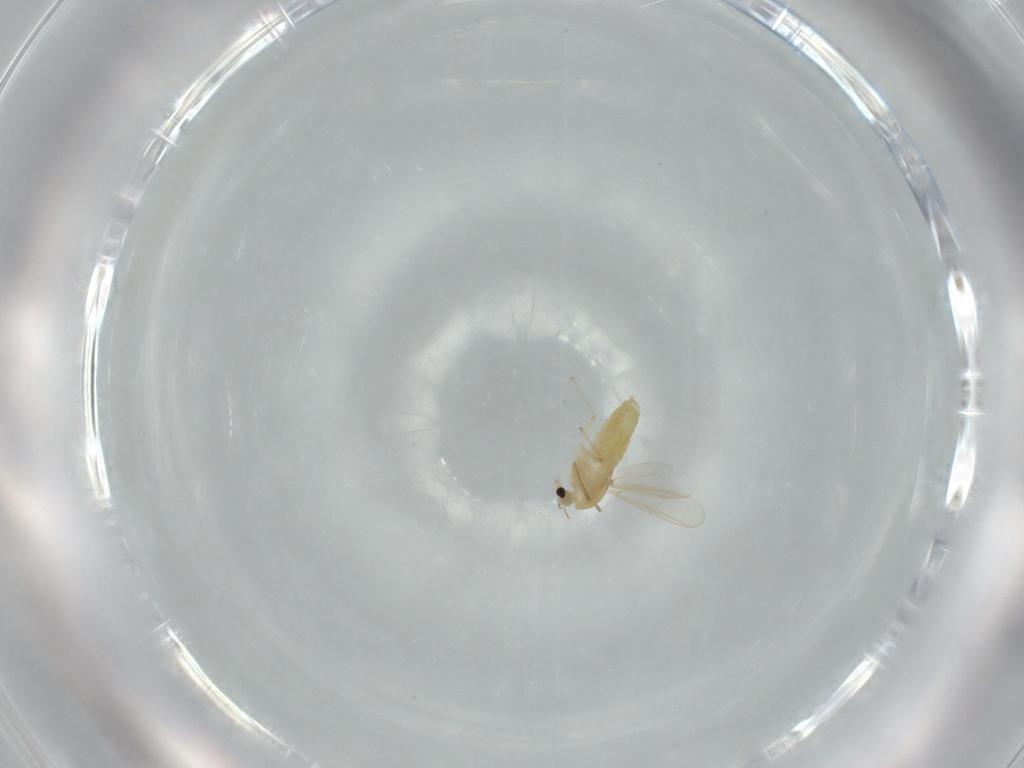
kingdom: Animalia
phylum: Arthropoda
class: Insecta
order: Diptera
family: Chironomidae
